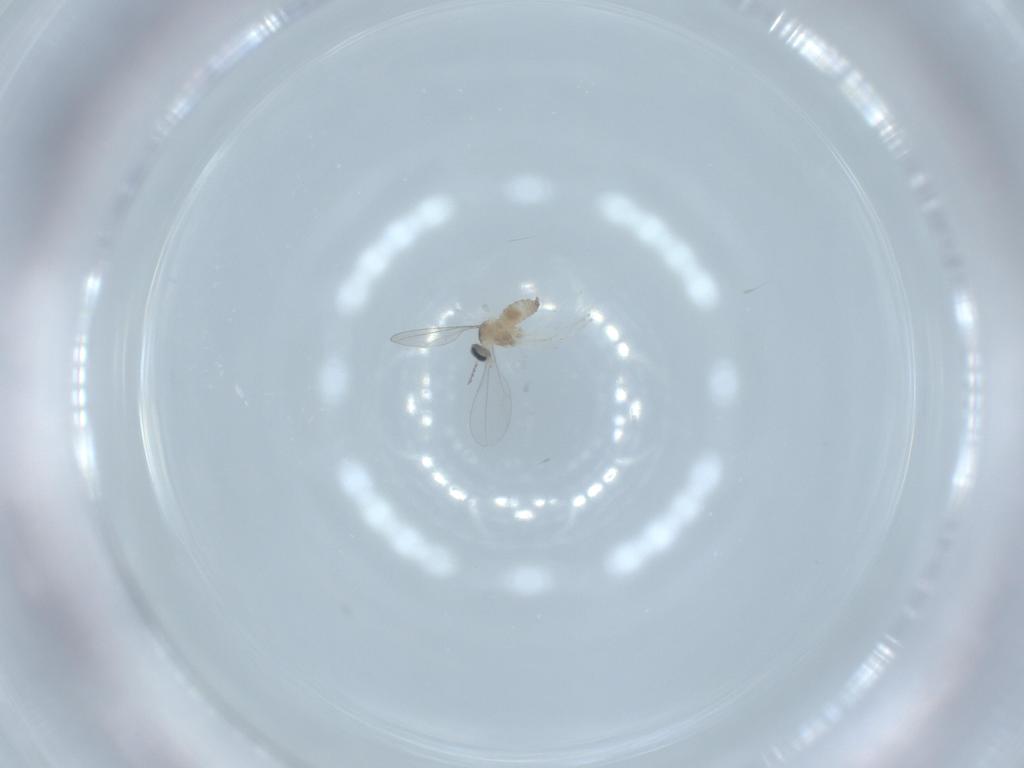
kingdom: Animalia
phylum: Arthropoda
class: Insecta
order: Diptera
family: Cecidomyiidae
